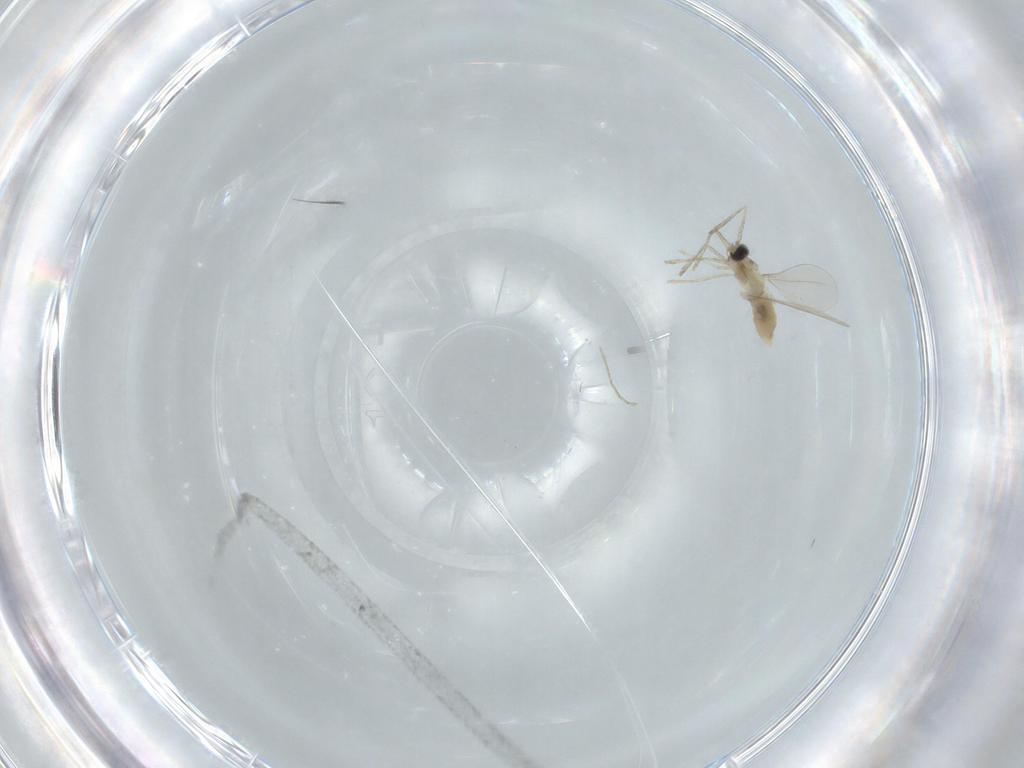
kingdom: Animalia
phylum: Arthropoda
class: Insecta
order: Diptera
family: Cecidomyiidae
